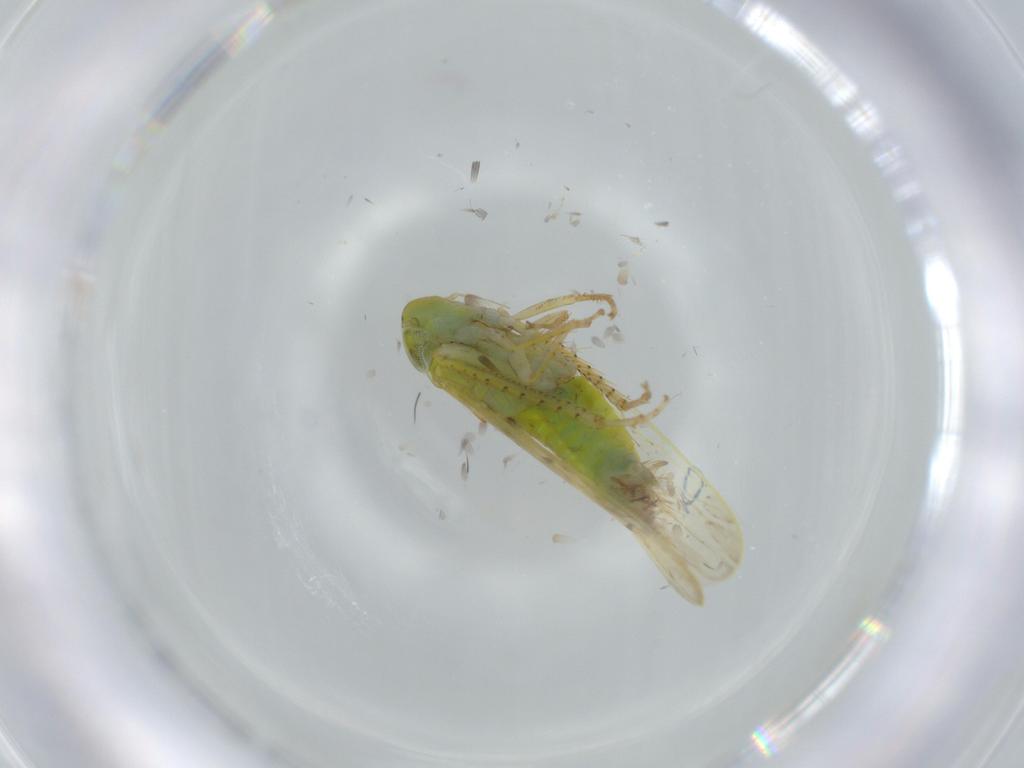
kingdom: Animalia
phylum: Arthropoda
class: Insecta
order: Hemiptera
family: Cicadellidae
